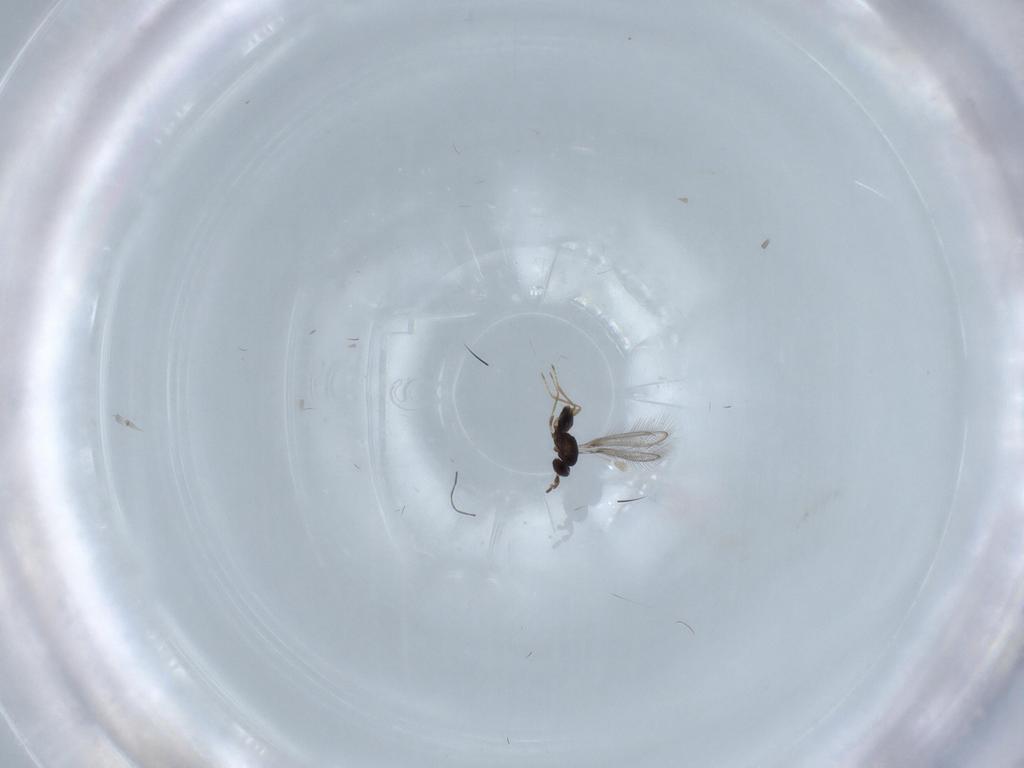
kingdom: Animalia
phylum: Arthropoda
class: Insecta
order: Hymenoptera
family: Mymaridae
